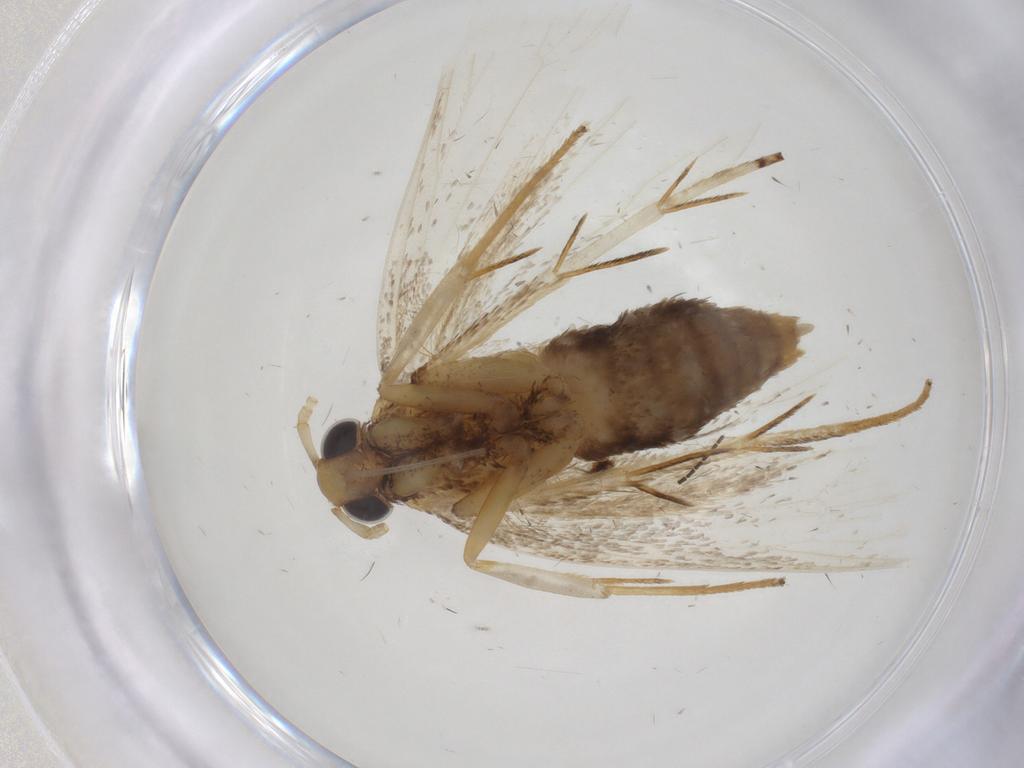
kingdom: Animalia
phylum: Arthropoda
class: Insecta
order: Lepidoptera
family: Lecithoceridae
